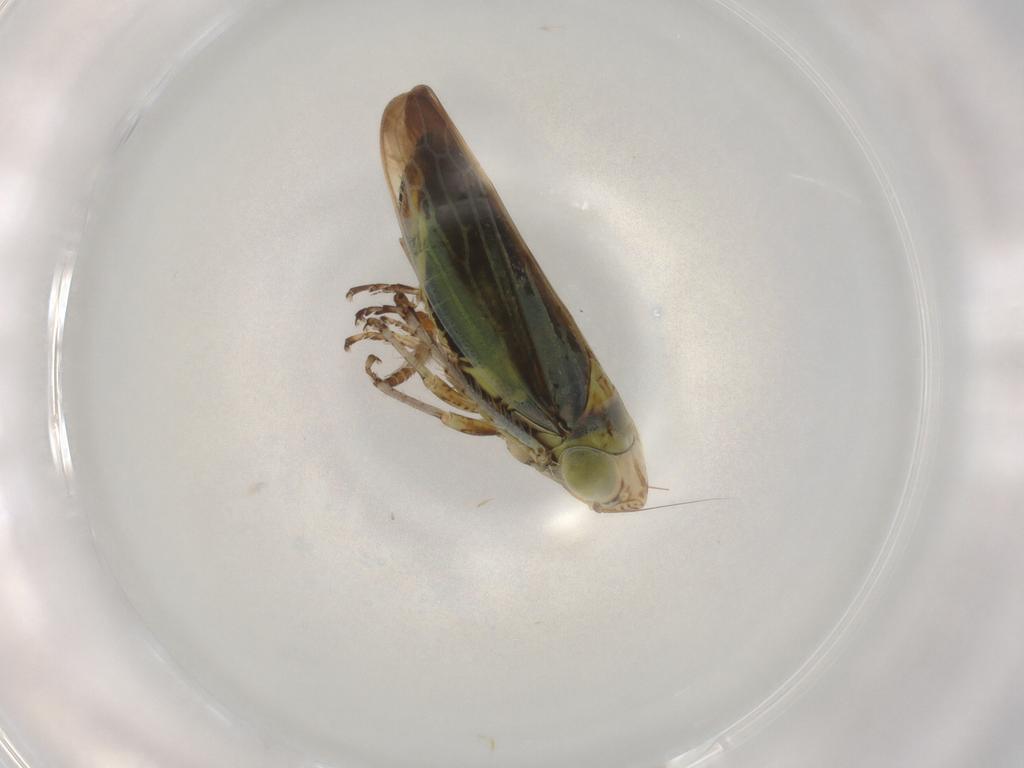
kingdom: Animalia
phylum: Arthropoda
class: Insecta
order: Hemiptera
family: Cicadellidae
